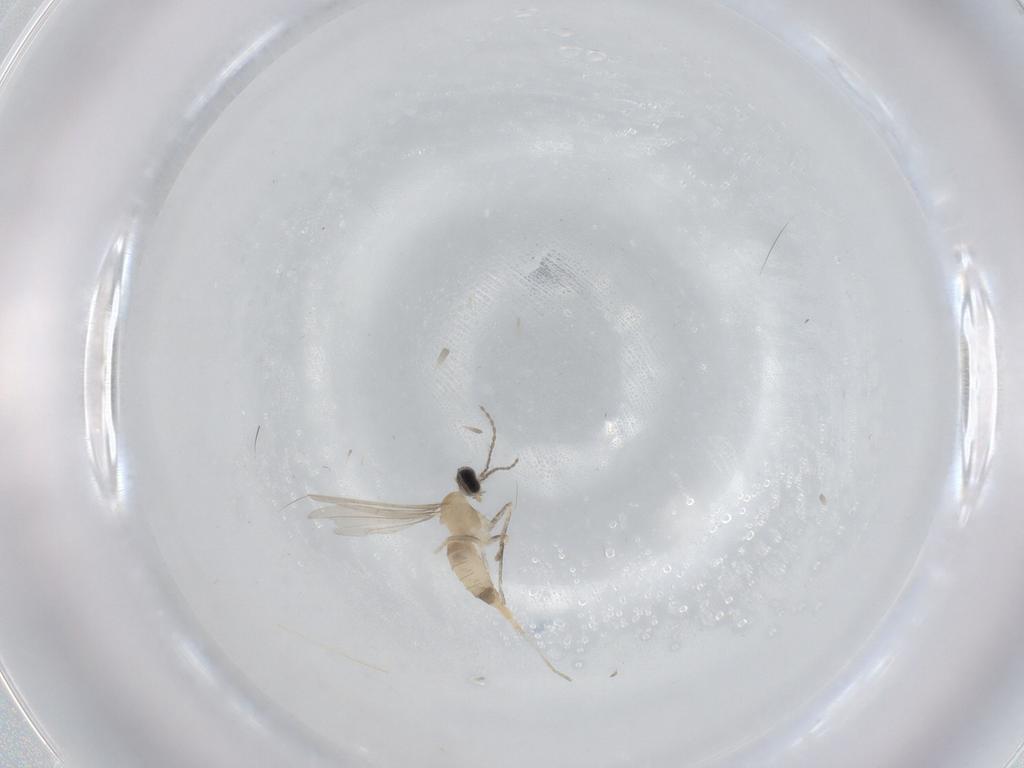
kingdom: Animalia
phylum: Arthropoda
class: Insecta
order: Diptera
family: Cecidomyiidae
